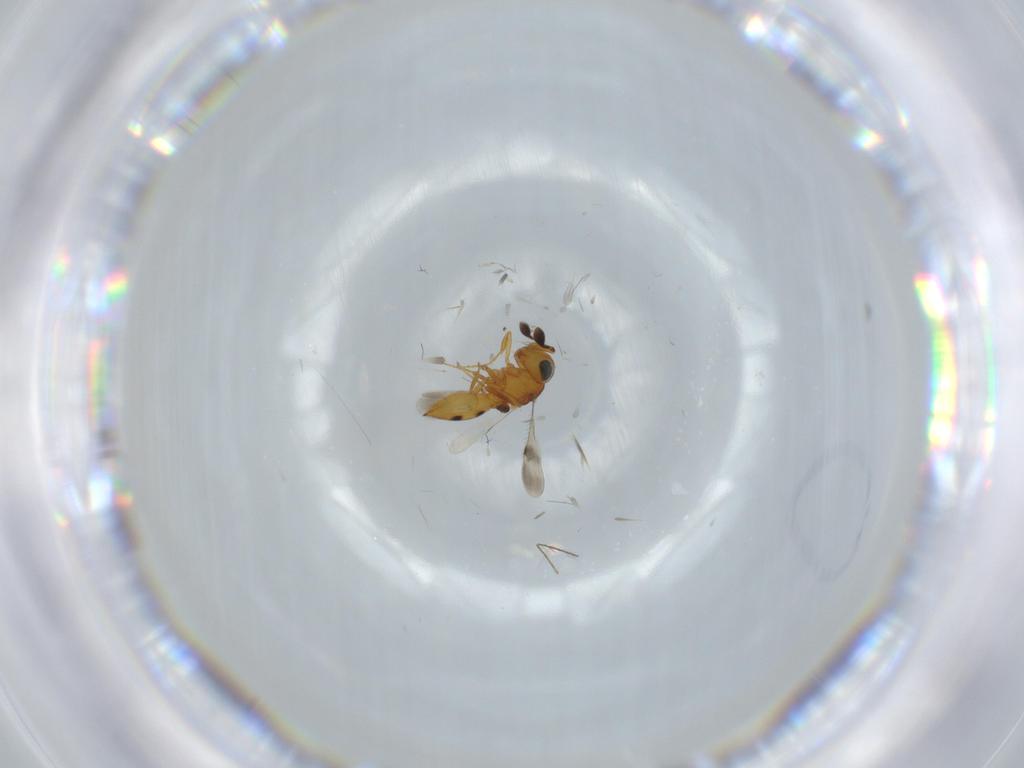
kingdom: Animalia
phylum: Arthropoda
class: Insecta
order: Hymenoptera
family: Scelionidae
